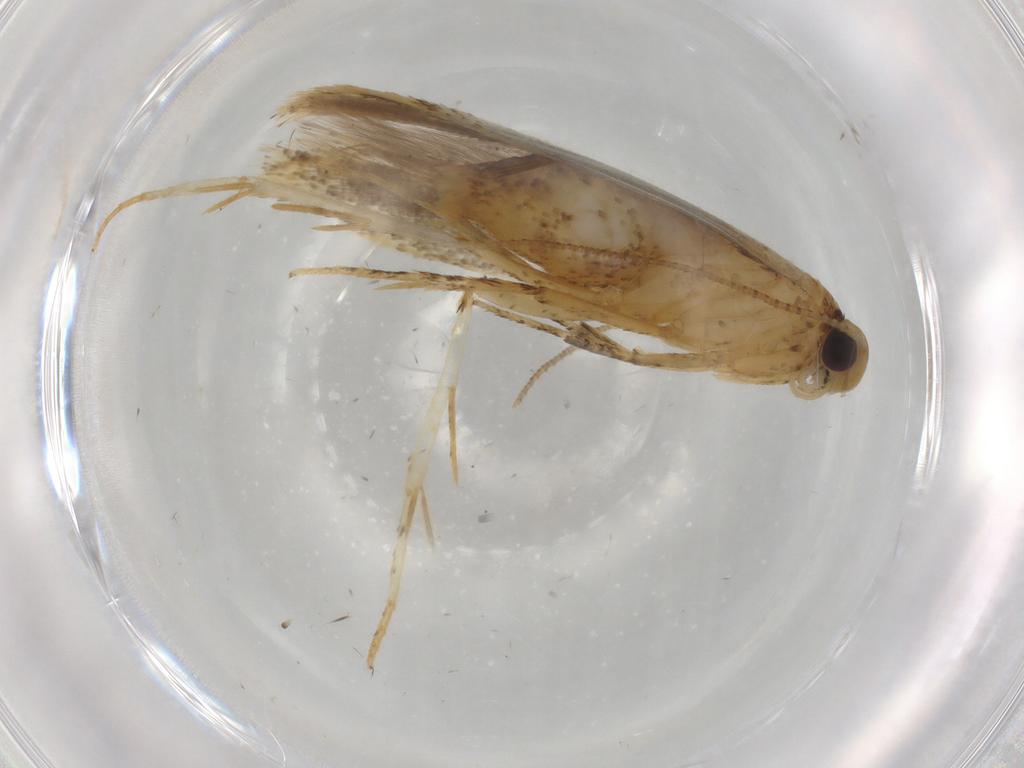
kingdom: Animalia
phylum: Arthropoda
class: Insecta
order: Lepidoptera
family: Gelechiidae
